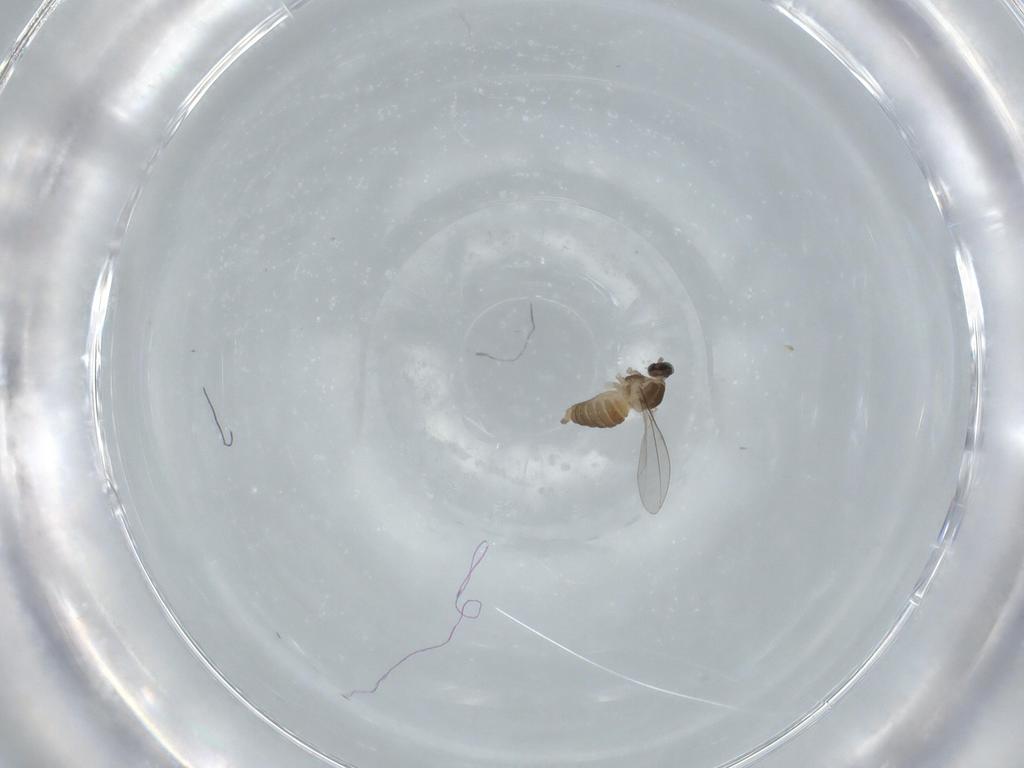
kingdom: Animalia
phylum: Arthropoda
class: Insecta
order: Diptera
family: Cecidomyiidae
